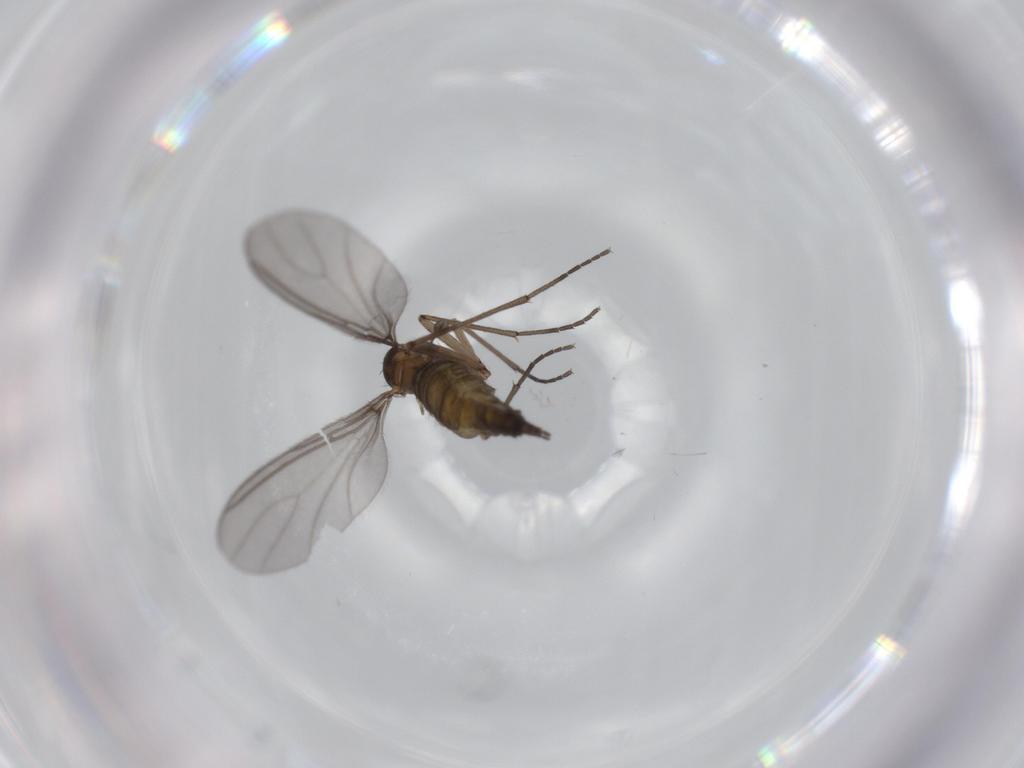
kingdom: Animalia
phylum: Arthropoda
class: Insecta
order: Diptera
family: Sciaridae
